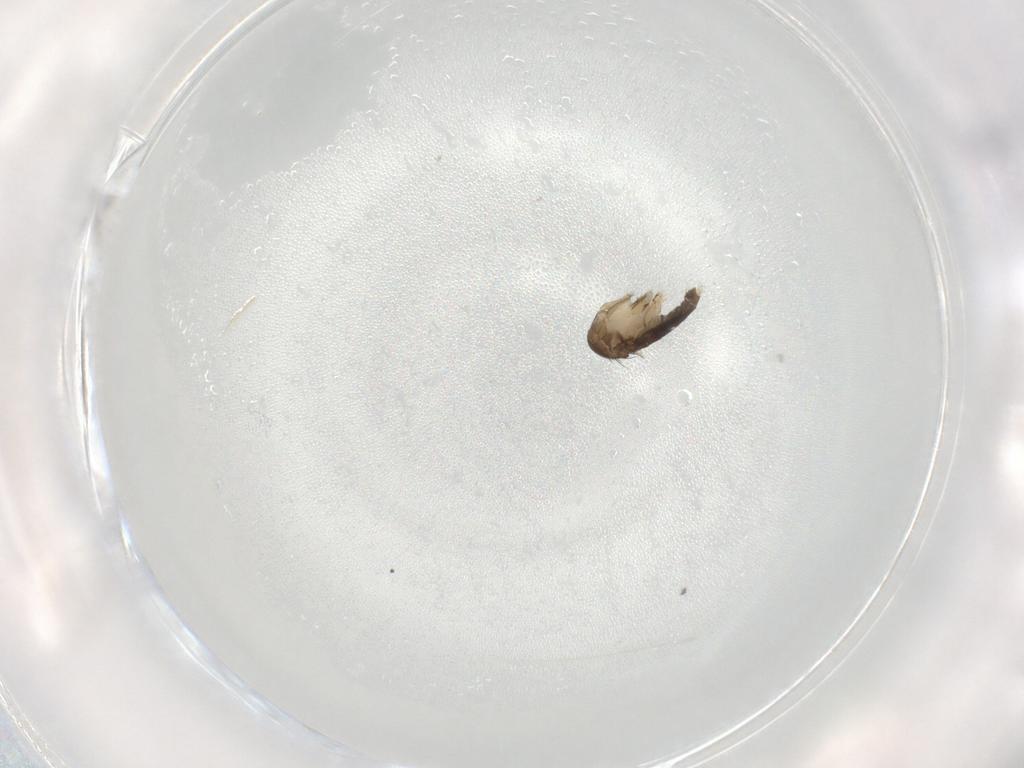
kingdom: Animalia
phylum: Arthropoda
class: Insecta
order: Diptera
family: Phoridae
